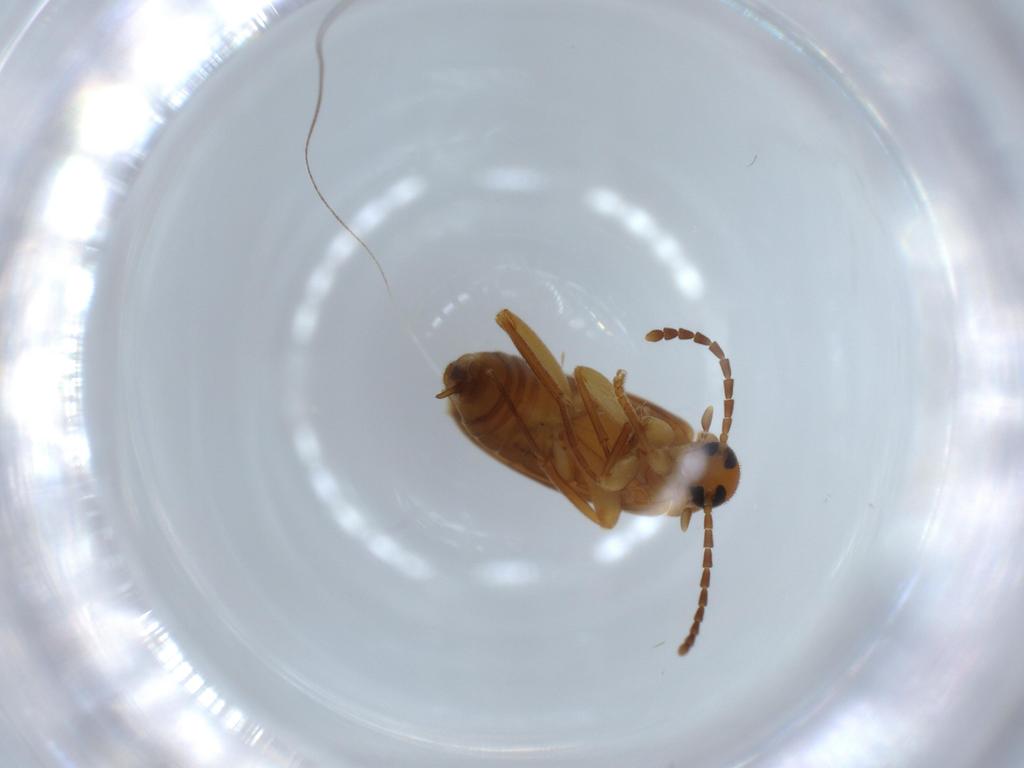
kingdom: Animalia
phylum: Arthropoda
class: Insecta
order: Coleoptera
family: Scraptiidae
